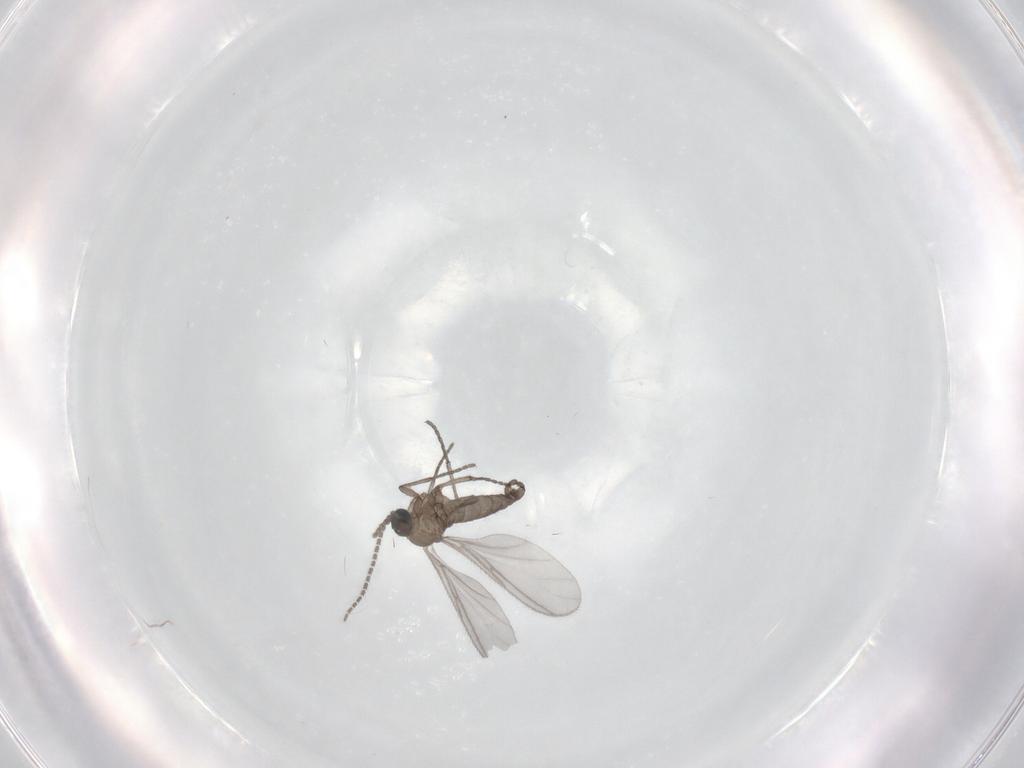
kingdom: Animalia
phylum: Arthropoda
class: Insecta
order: Diptera
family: Sciaridae
